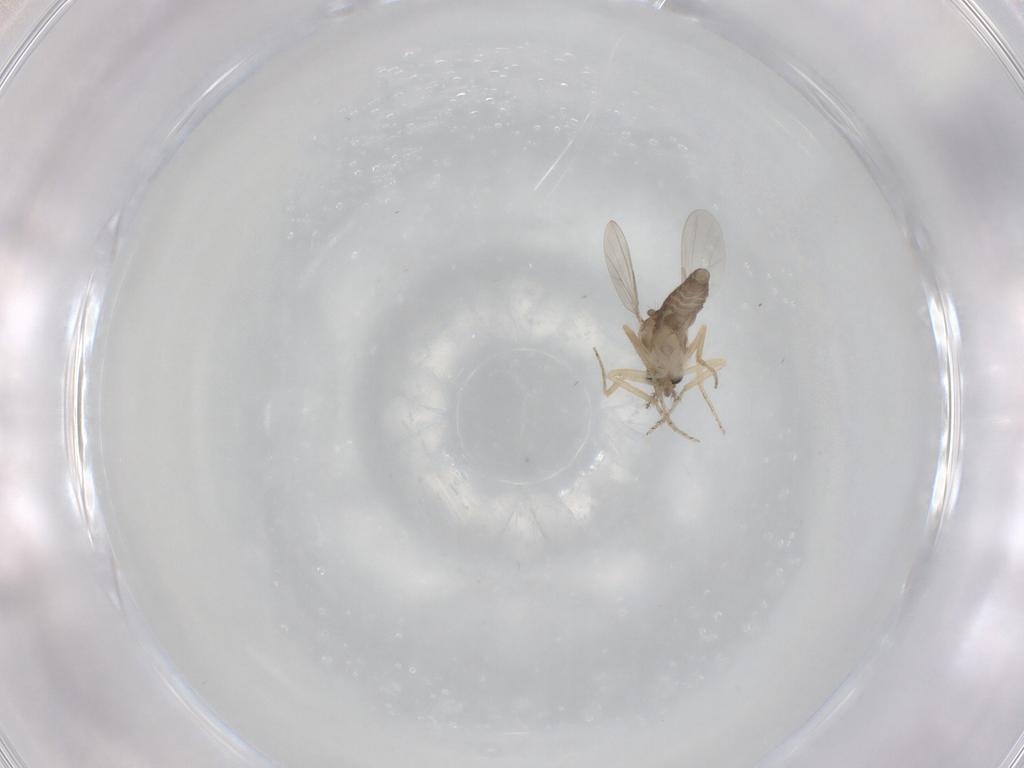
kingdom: Animalia
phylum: Arthropoda
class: Insecta
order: Diptera
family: Ceratopogonidae
